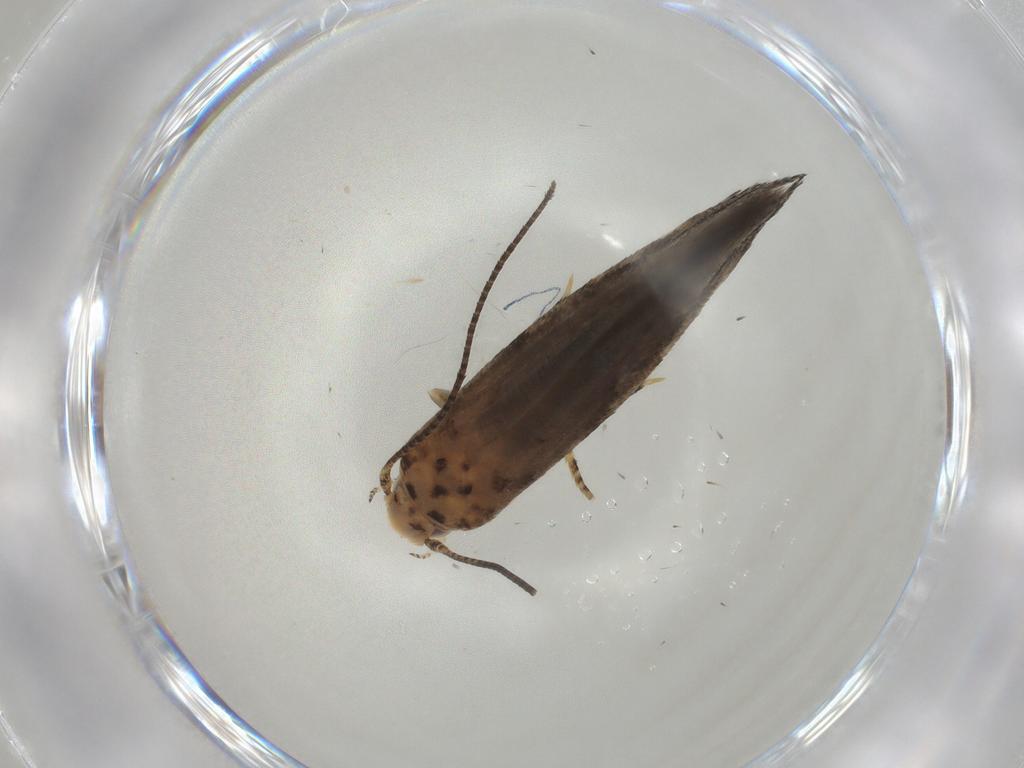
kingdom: Animalia
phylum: Arthropoda
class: Insecta
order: Lepidoptera
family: Gelechiidae
